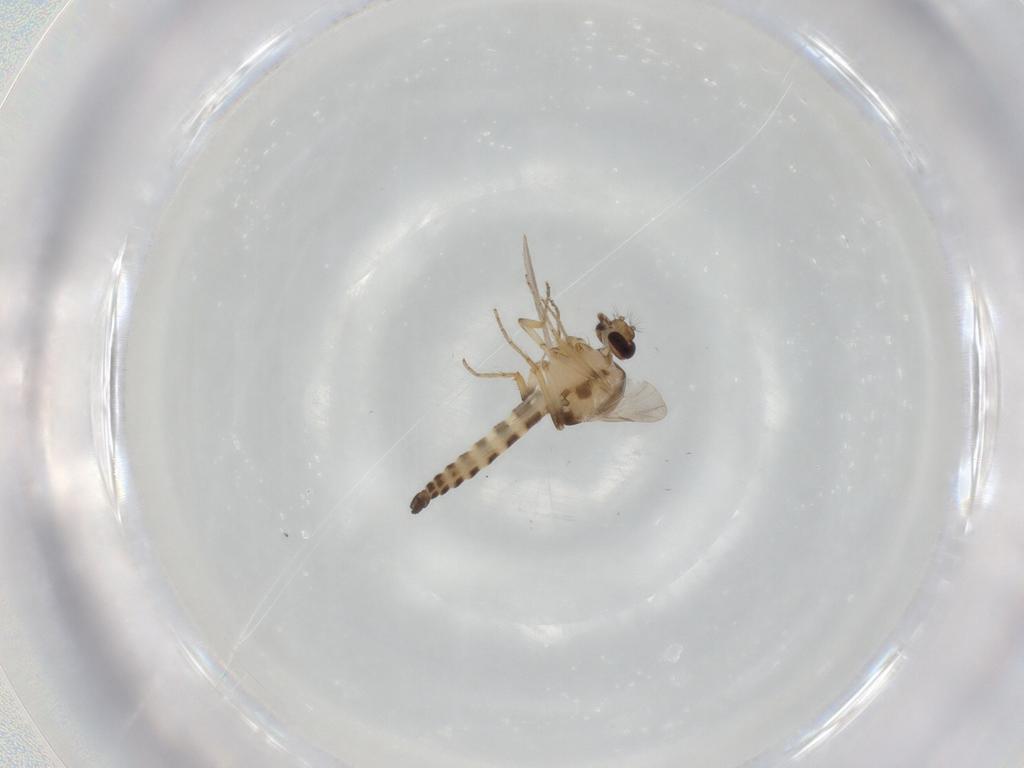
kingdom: Animalia
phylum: Arthropoda
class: Insecta
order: Diptera
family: Ceratopogonidae
